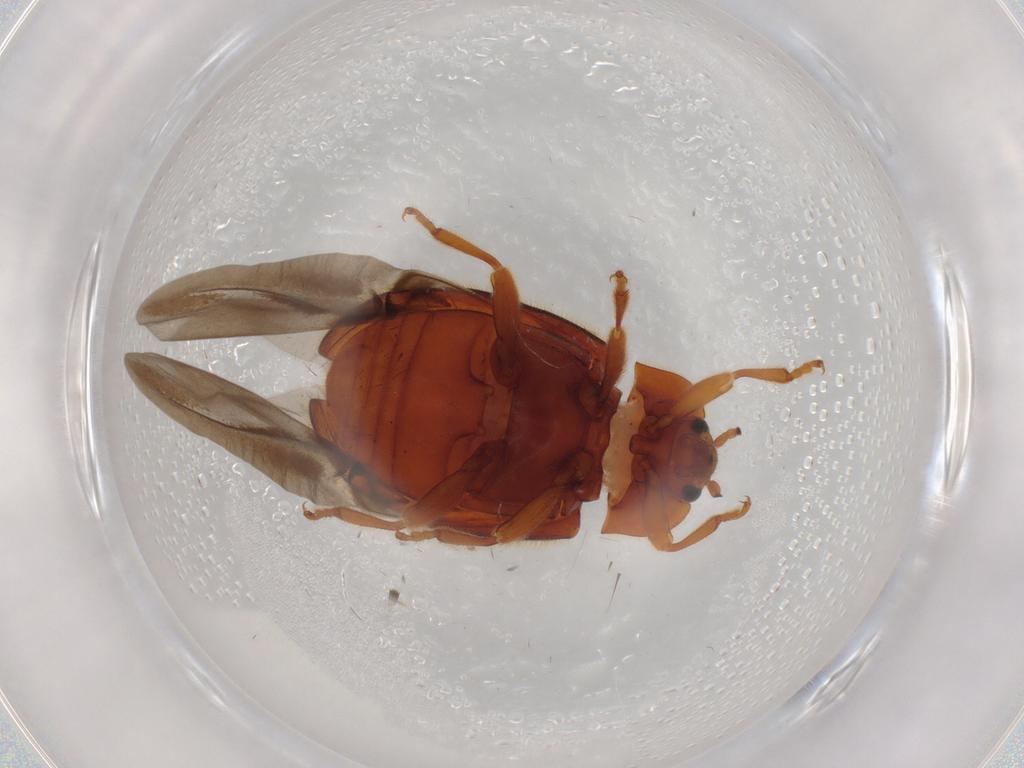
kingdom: Animalia
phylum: Arthropoda
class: Insecta
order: Coleoptera
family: Endomychidae
